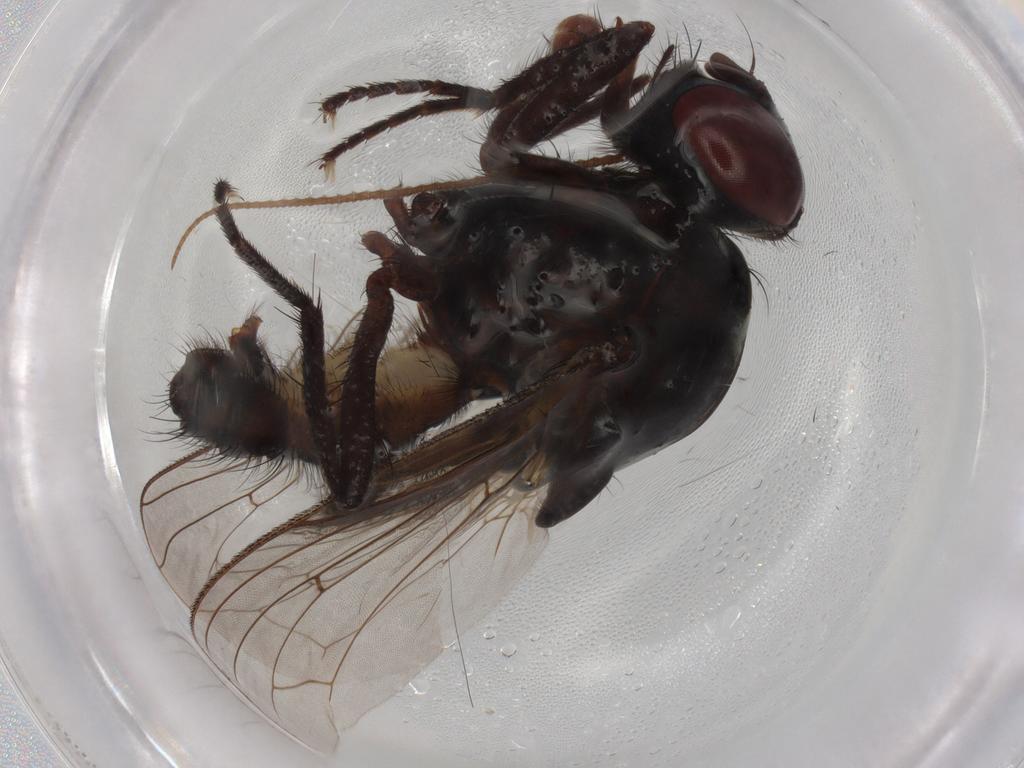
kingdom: Animalia
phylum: Arthropoda
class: Insecta
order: Diptera
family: Anthomyiidae
